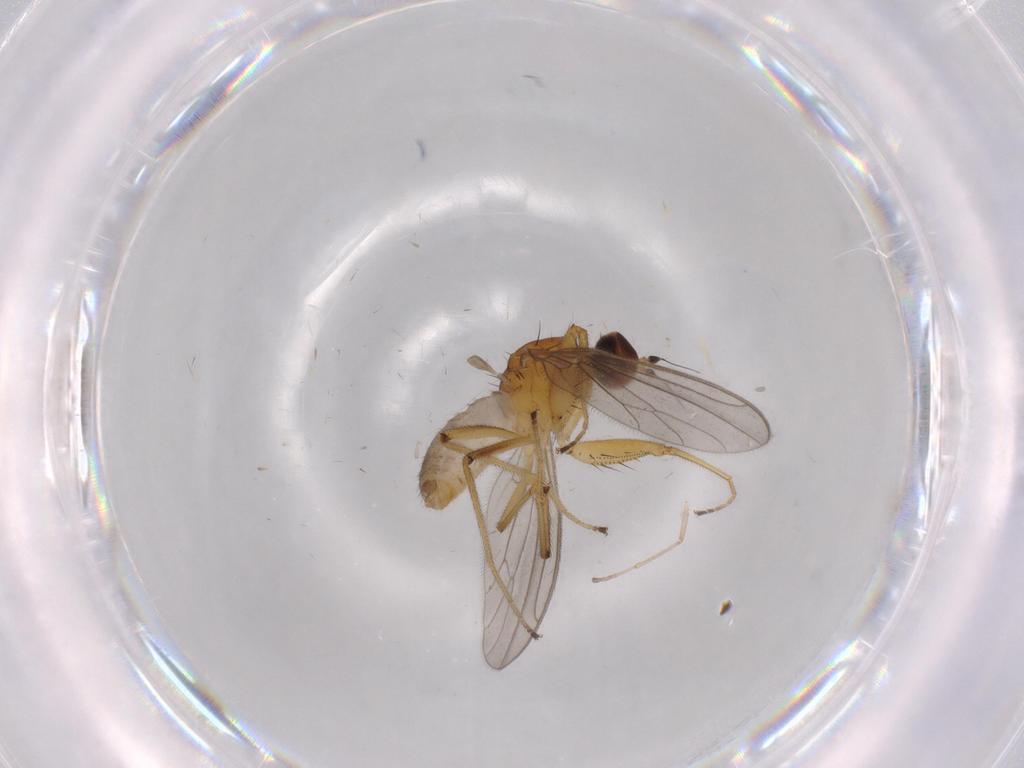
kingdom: Animalia
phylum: Arthropoda
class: Insecta
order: Diptera
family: Empididae
